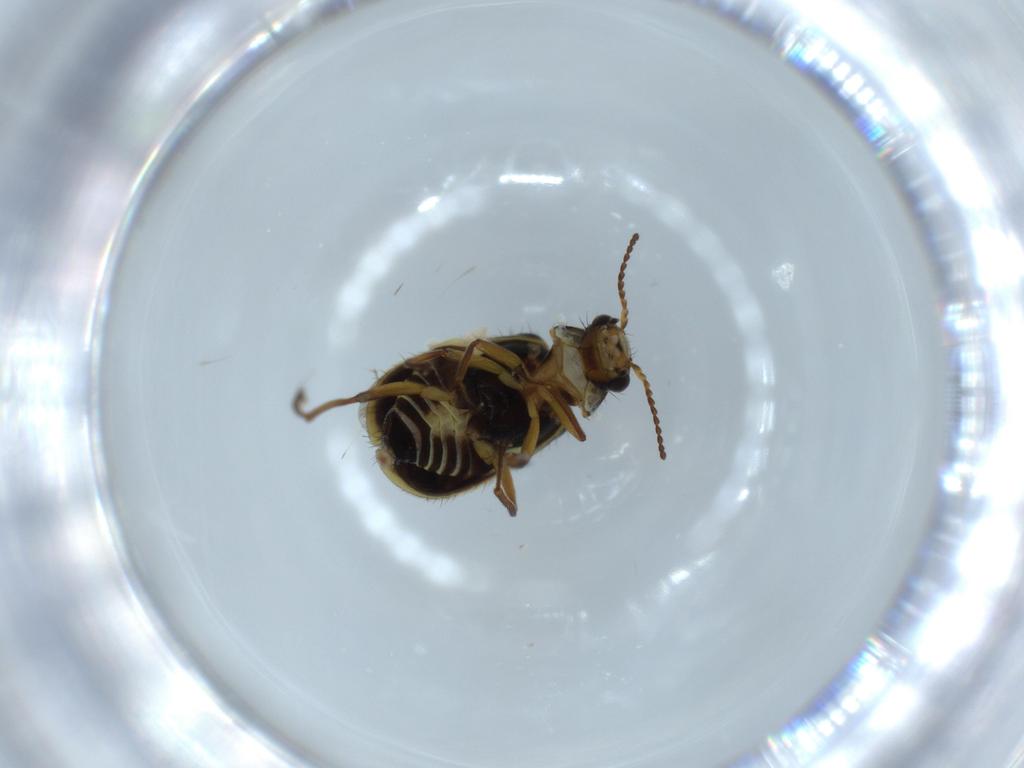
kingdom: Animalia
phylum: Arthropoda
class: Insecta
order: Coleoptera
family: Melyridae
